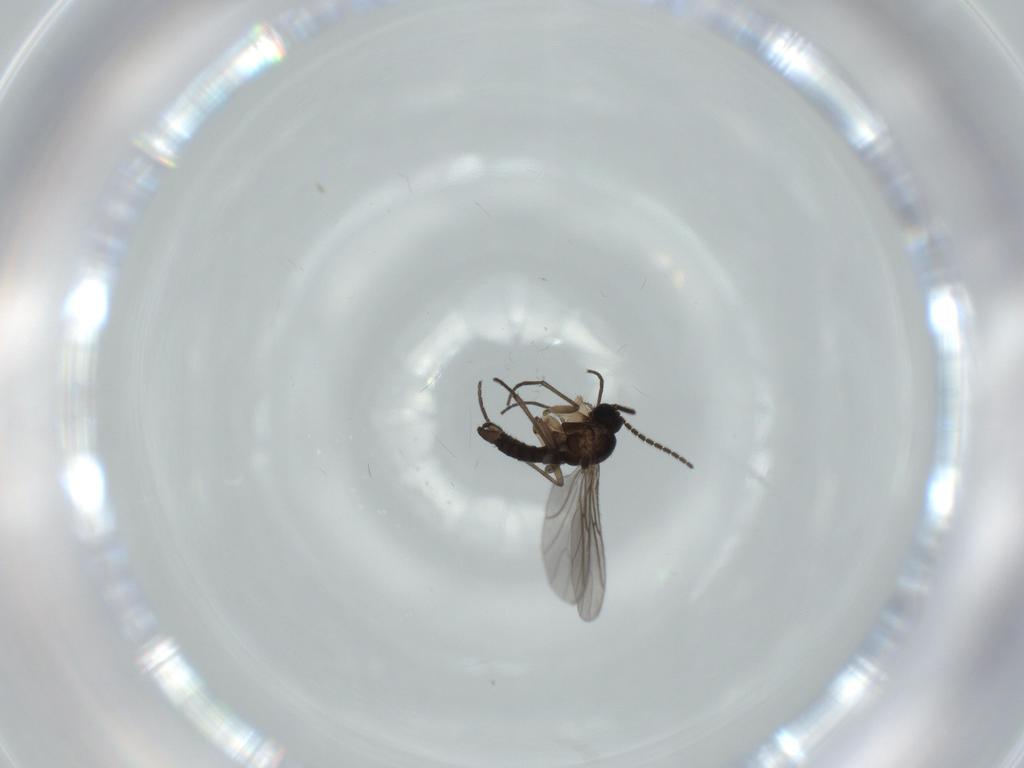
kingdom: Animalia
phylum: Arthropoda
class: Insecta
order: Diptera
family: Sciaridae
